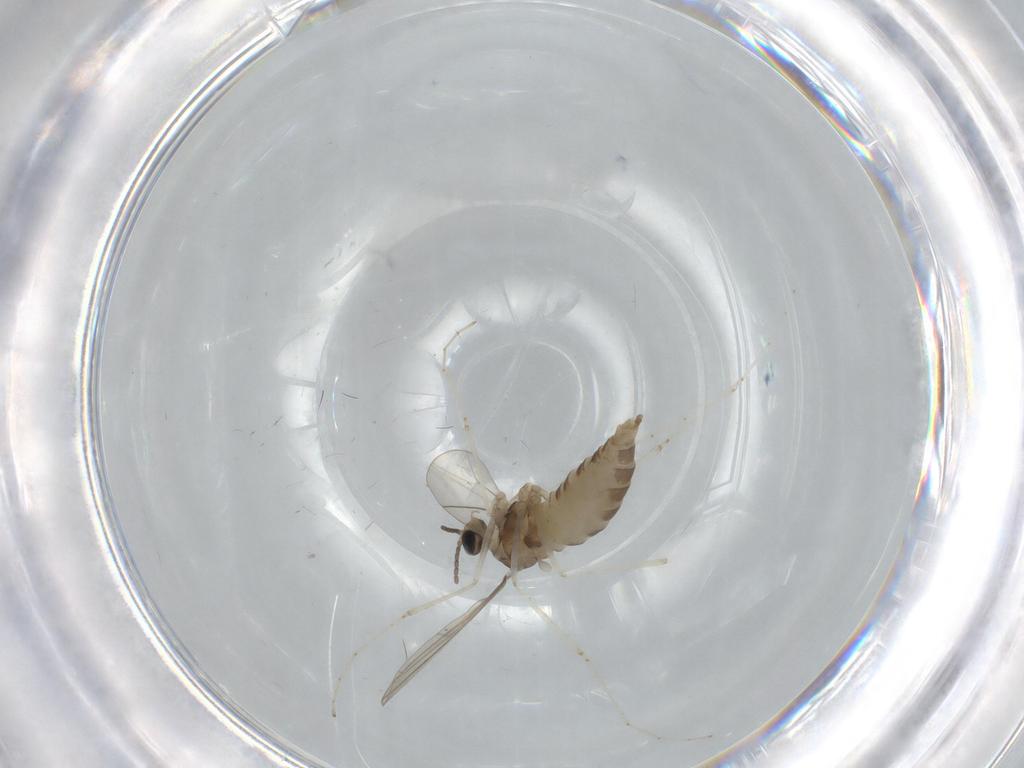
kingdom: Animalia
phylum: Arthropoda
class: Insecta
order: Diptera
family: Cecidomyiidae
